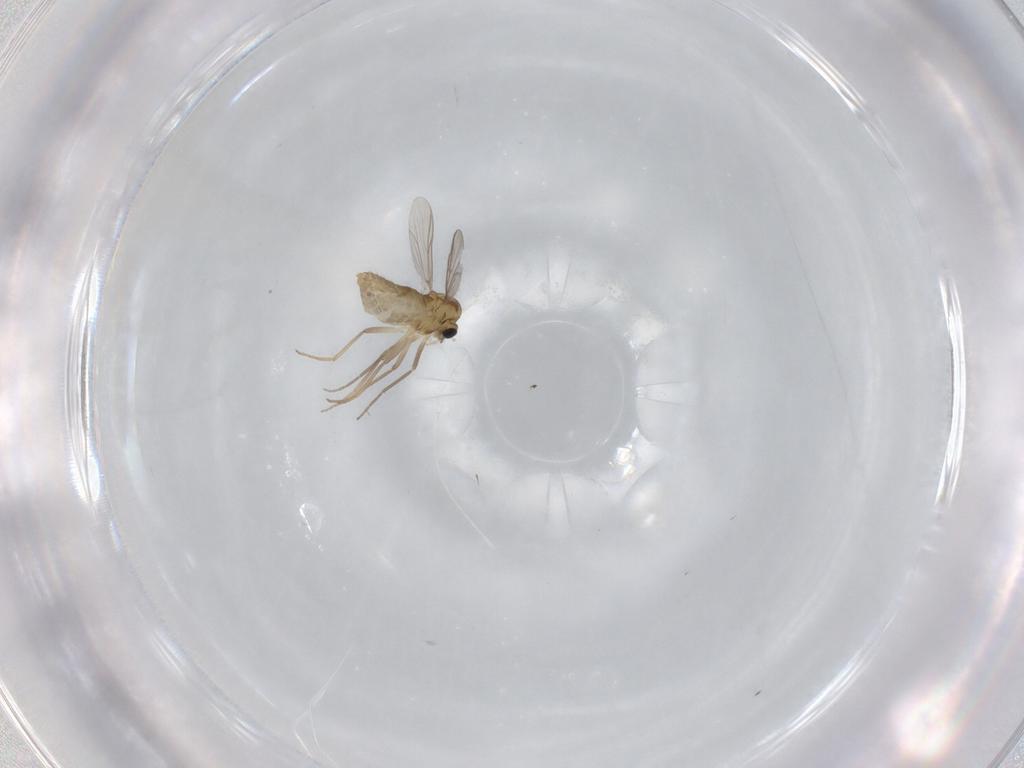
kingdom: Animalia
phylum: Arthropoda
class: Insecta
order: Diptera
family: Chironomidae
